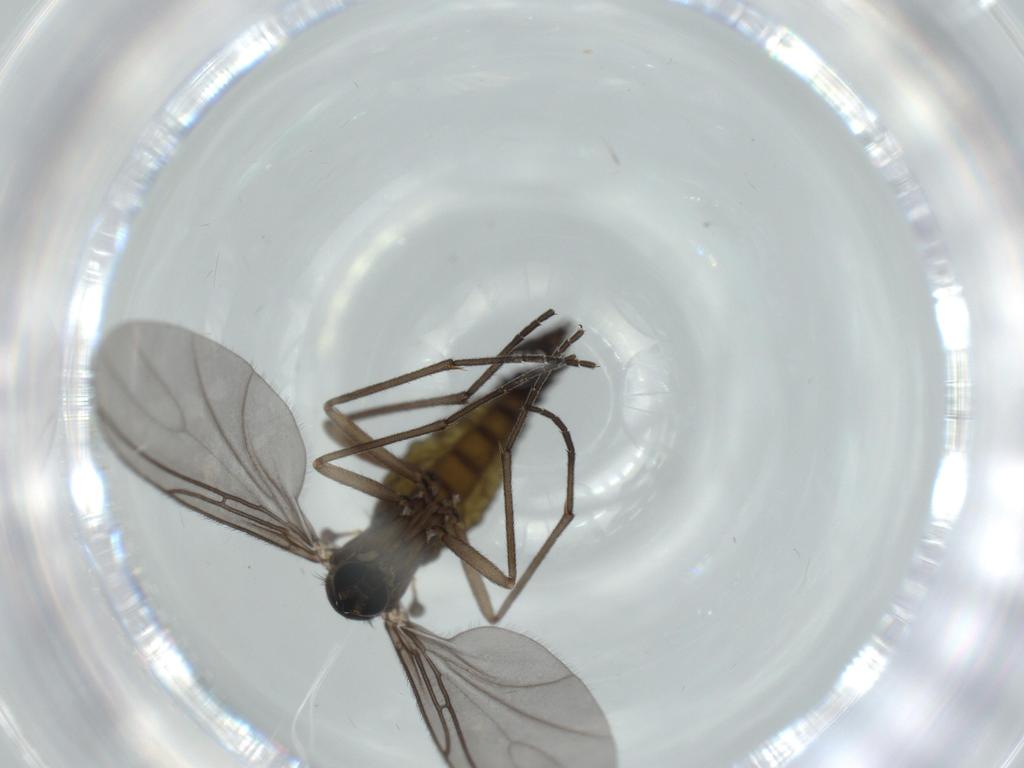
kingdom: Animalia
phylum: Arthropoda
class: Insecta
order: Diptera
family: Sciaridae
